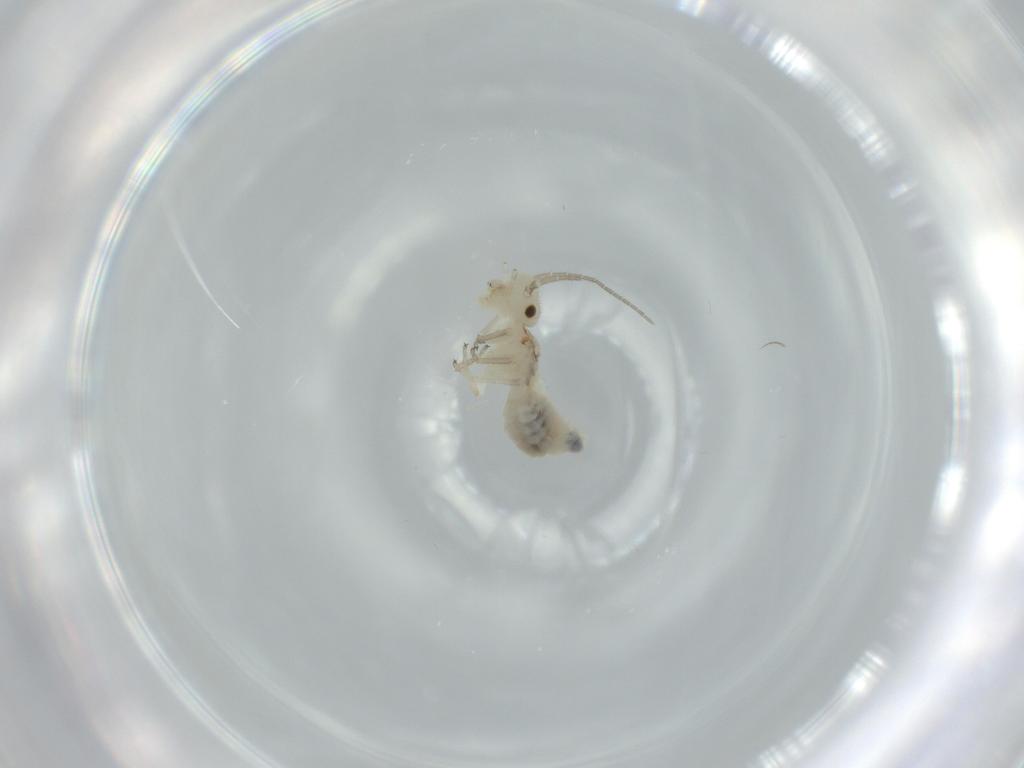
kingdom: Animalia
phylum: Arthropoda
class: Insecta
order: Psocodea
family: Caeciliusidae
